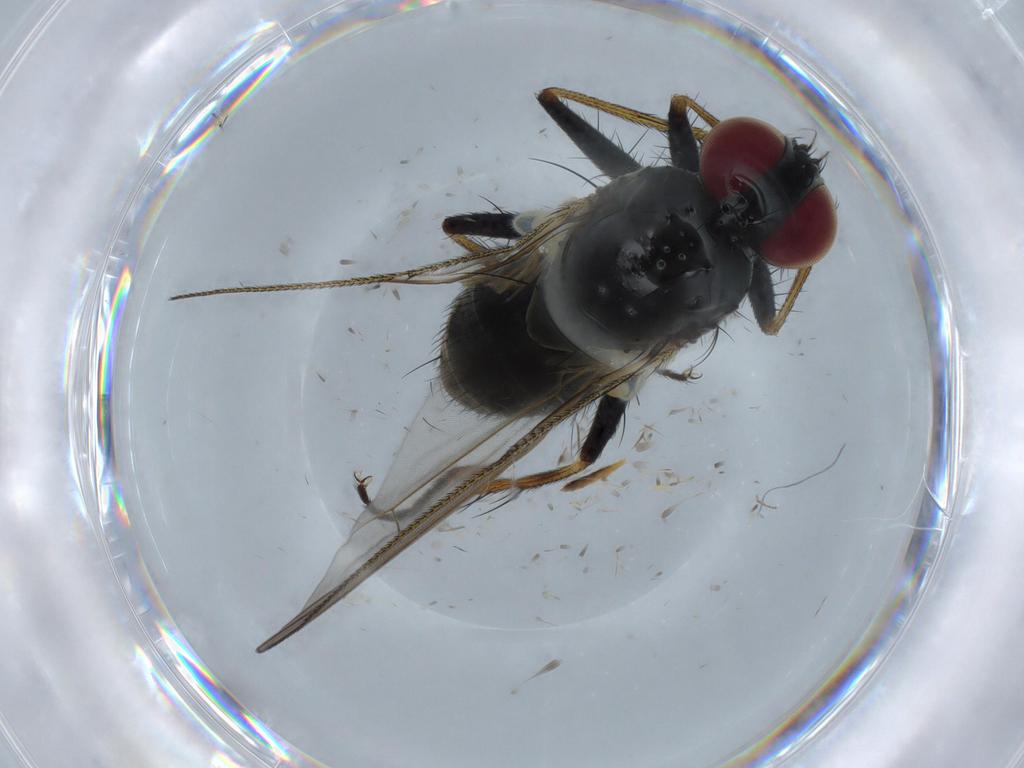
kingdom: Animalia
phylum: Arthropoda
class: Insecta
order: Diptera
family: Muscidae
